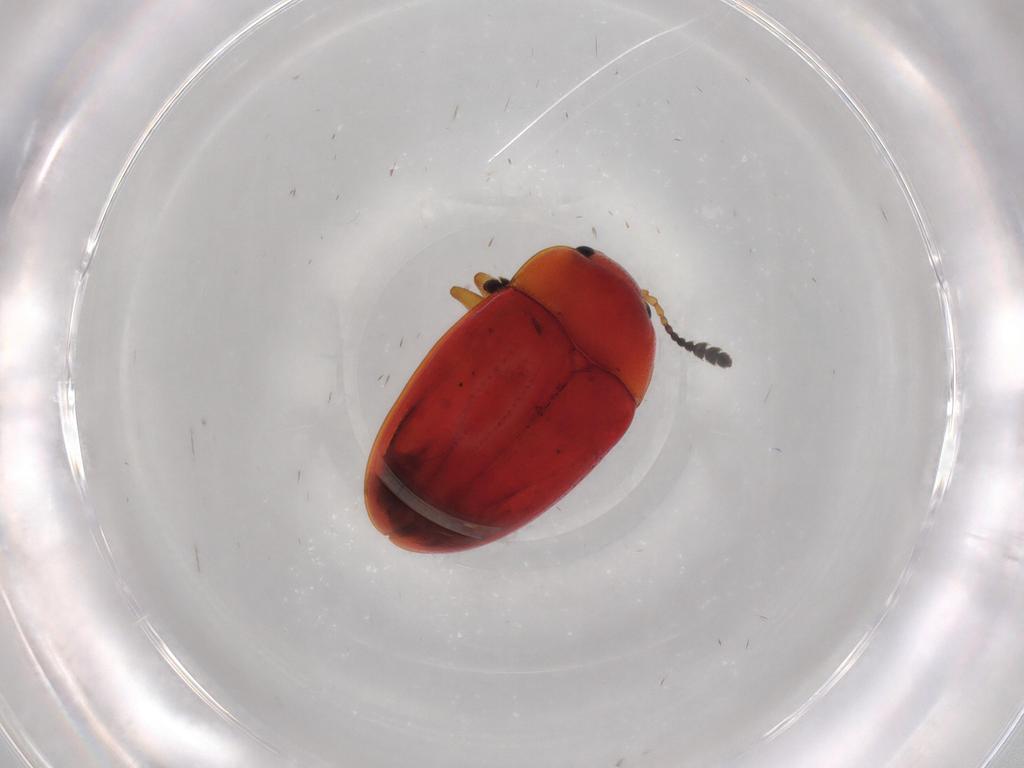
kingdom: Animalia
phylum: Arthropoda
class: Insecta
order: Coleoptera
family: Erotylidae
